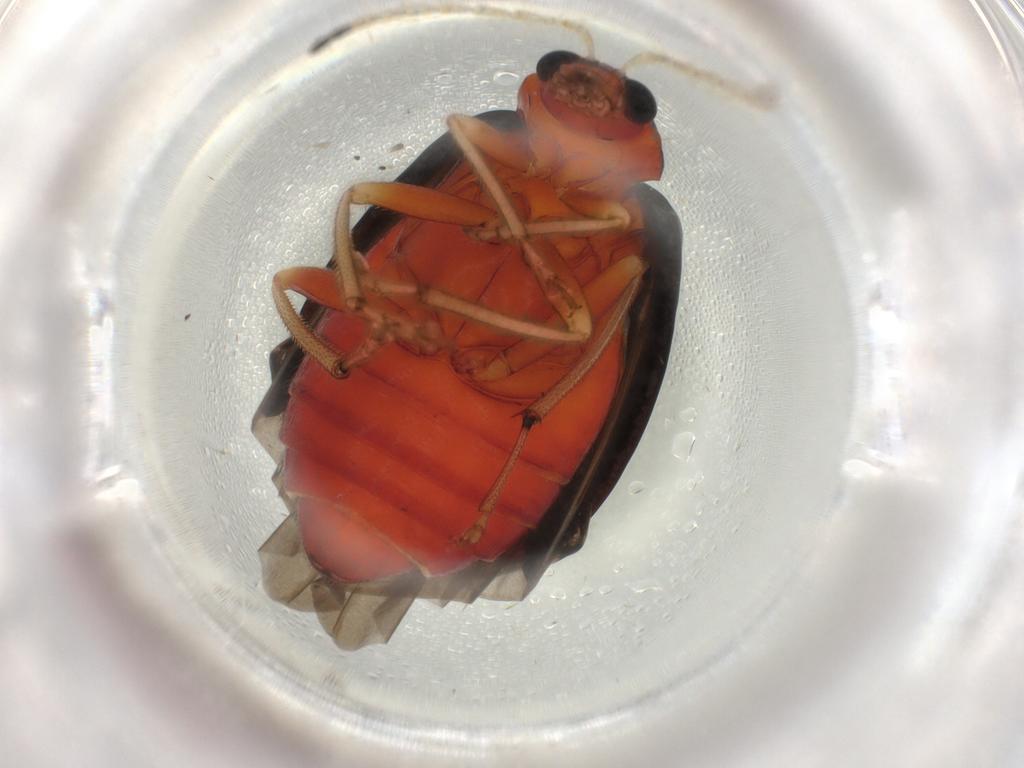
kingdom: Animalia
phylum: Arthropoda
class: Insecta
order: Coleoptera
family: Chrysomelidae
